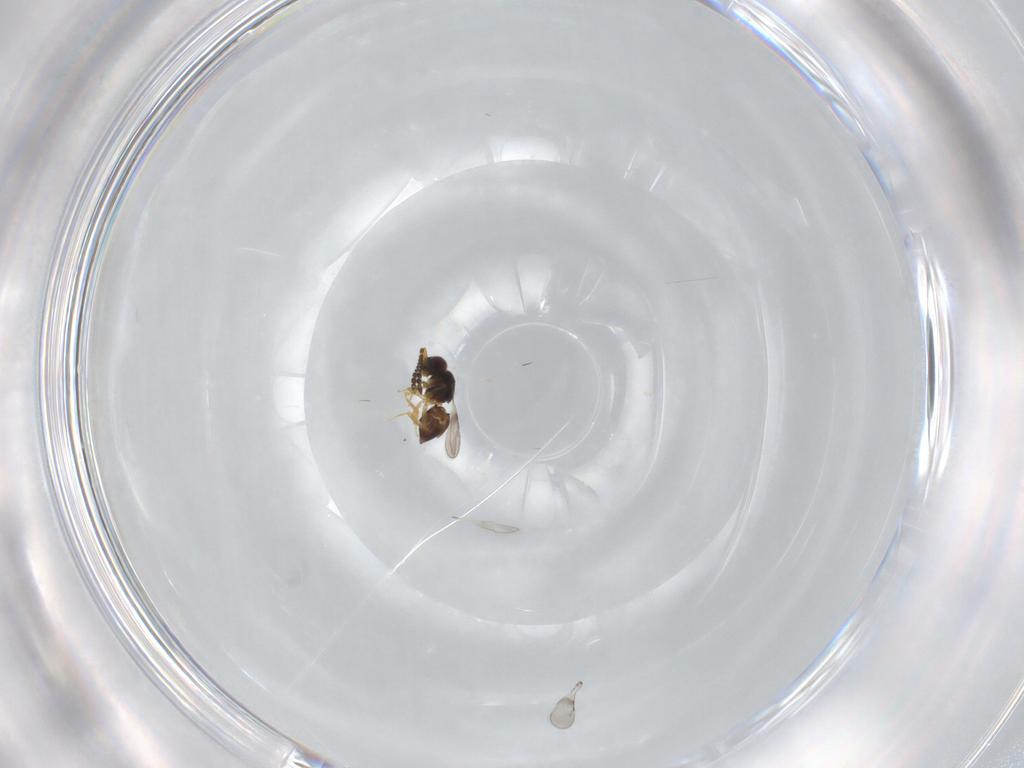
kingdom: Animalia
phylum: Arthropoda
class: Insecta
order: Hymenoptera
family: Ceraphronidae
